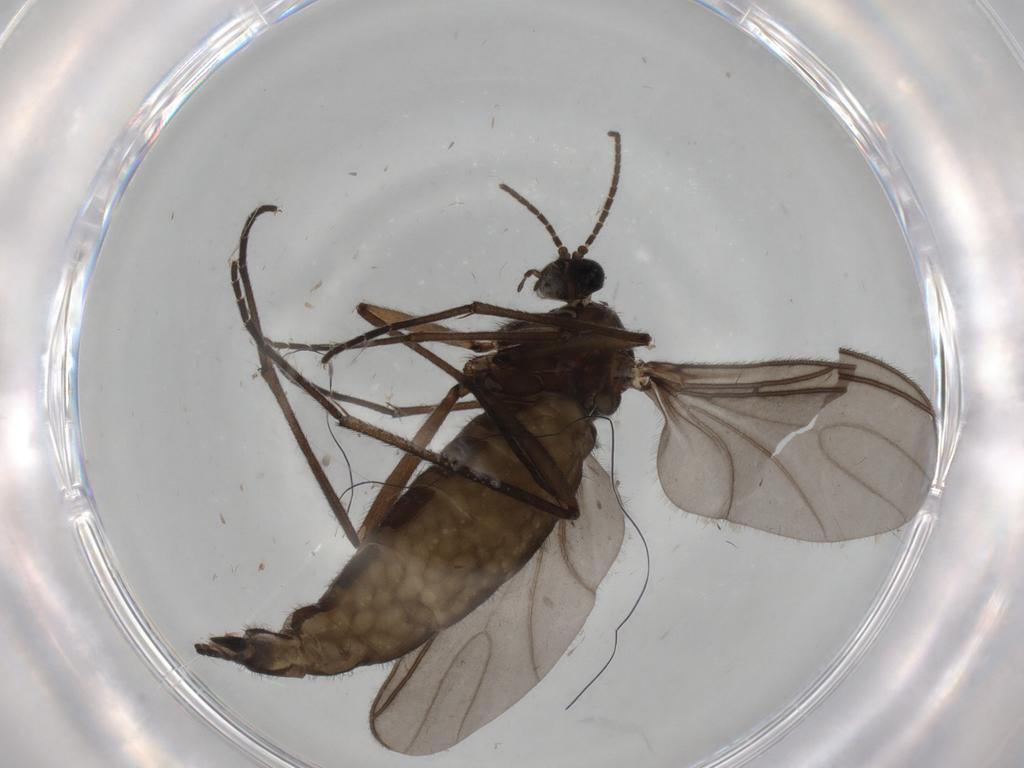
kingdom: Animalia
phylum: Arthropoda
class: Insecta
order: Diptera
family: Sciaridae
